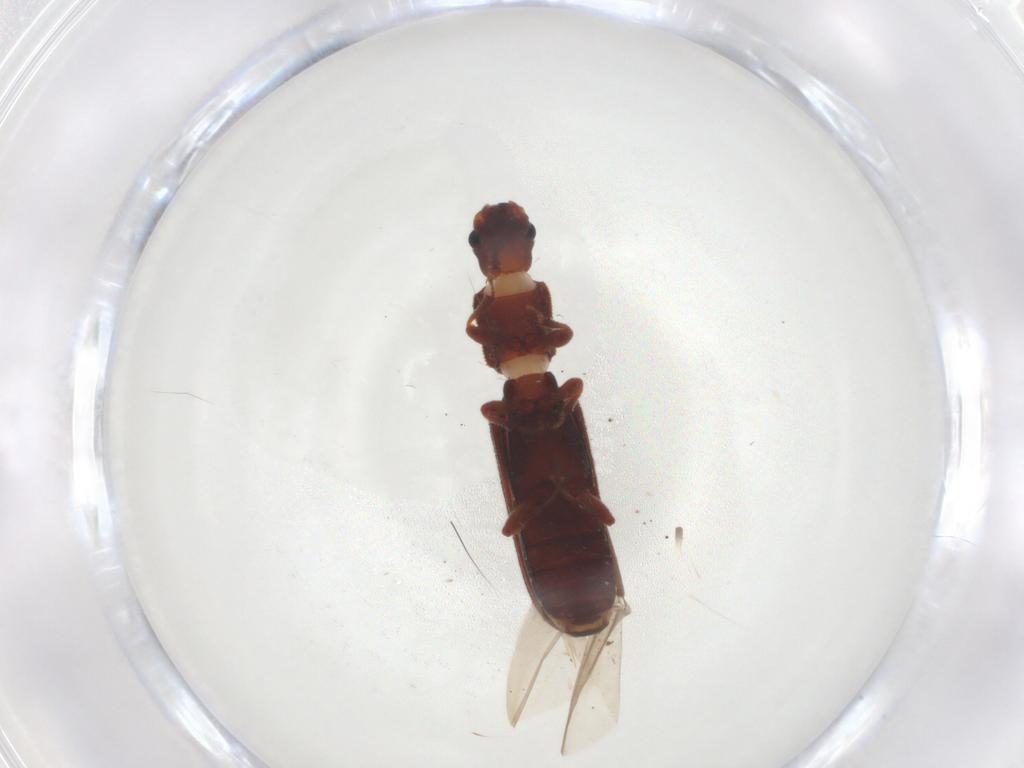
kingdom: Animalia
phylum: Arthropoda
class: Insecta
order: Coleoptera
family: Zopheridae
